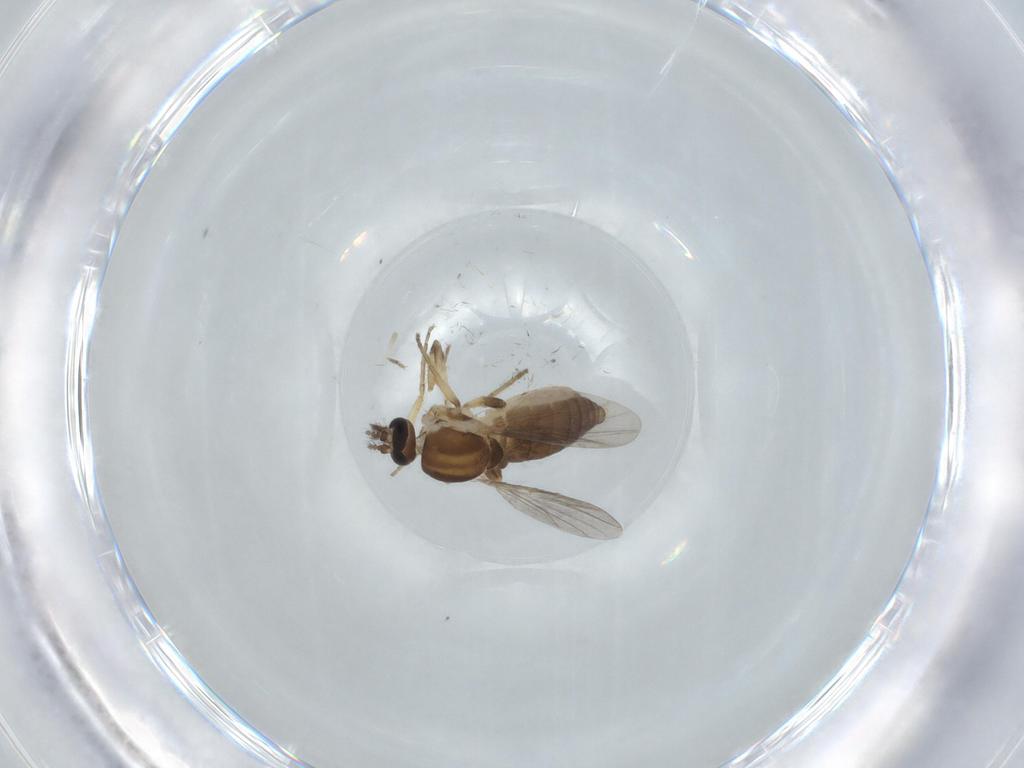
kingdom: Animalia
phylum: Arthropoda
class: Insecta
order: Diptera
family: Ceratopogonidae
